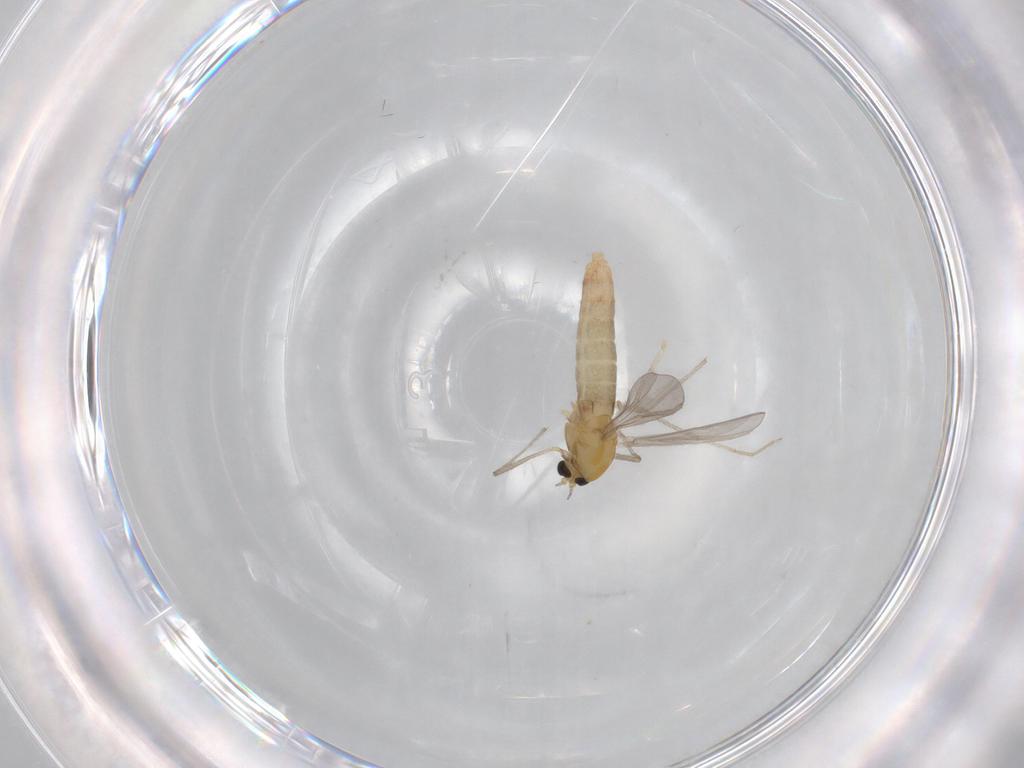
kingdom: Animalia
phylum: Arthropoda
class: Insecta
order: Diptera
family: Chironomidae
